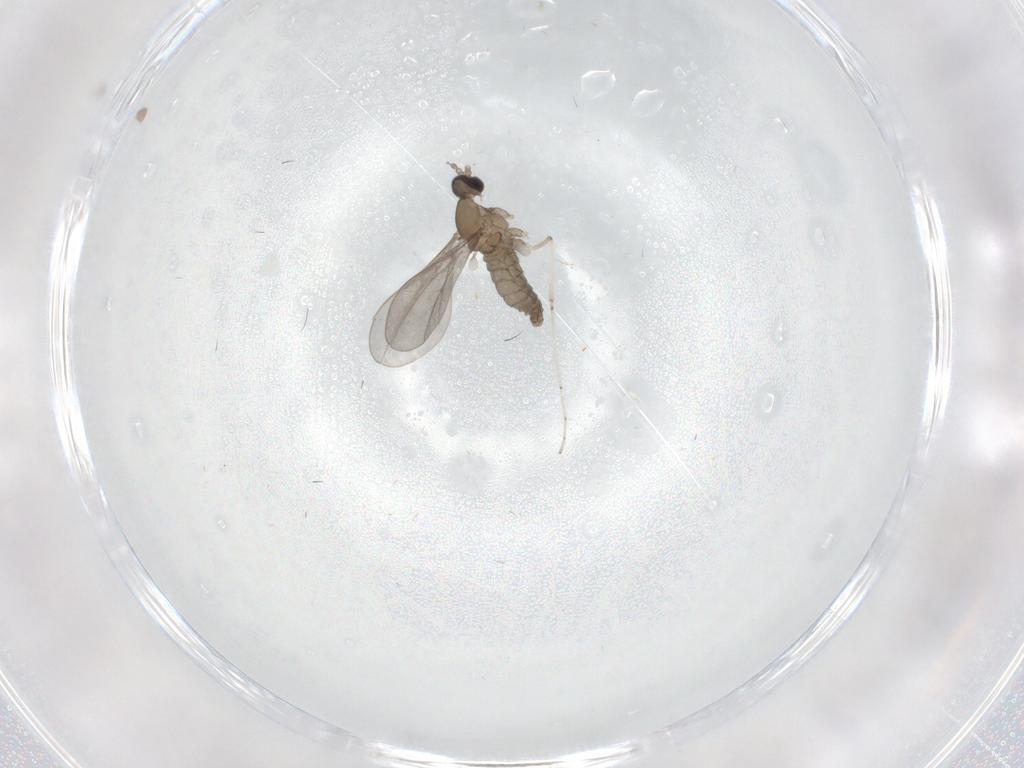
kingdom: Animalia
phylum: Arthropoda
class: Insecta
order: Diptera
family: Cecidomyiidae
